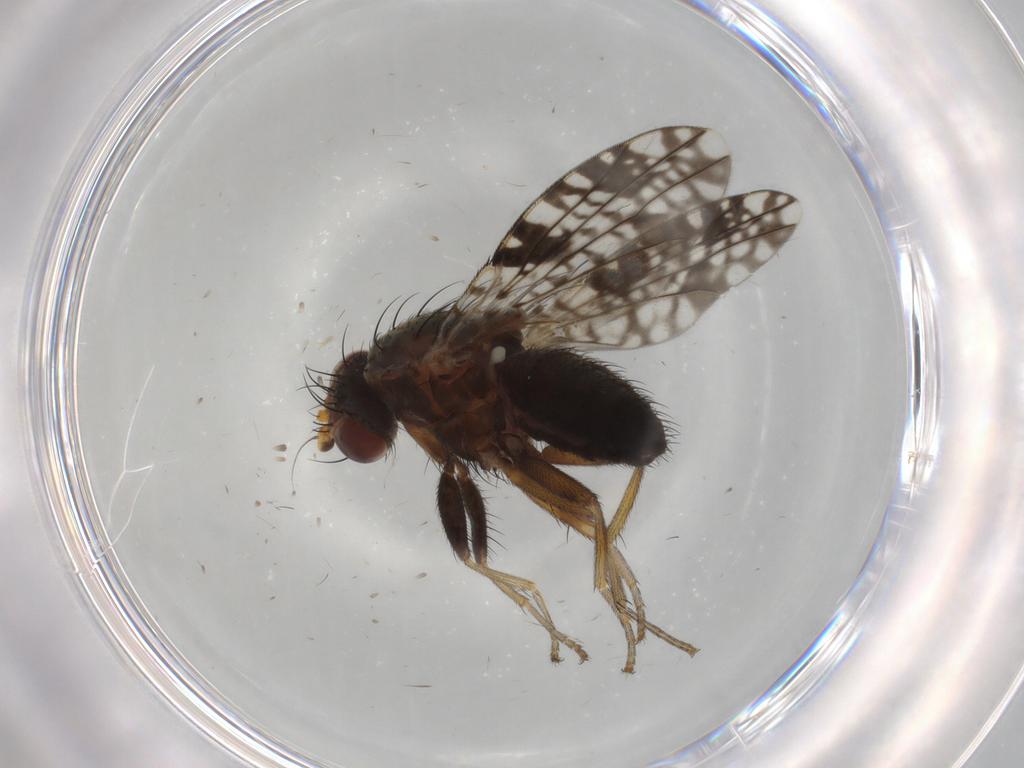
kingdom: Animalia
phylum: Arthropoda
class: Insecta
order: Diptera
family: Tephritidae
